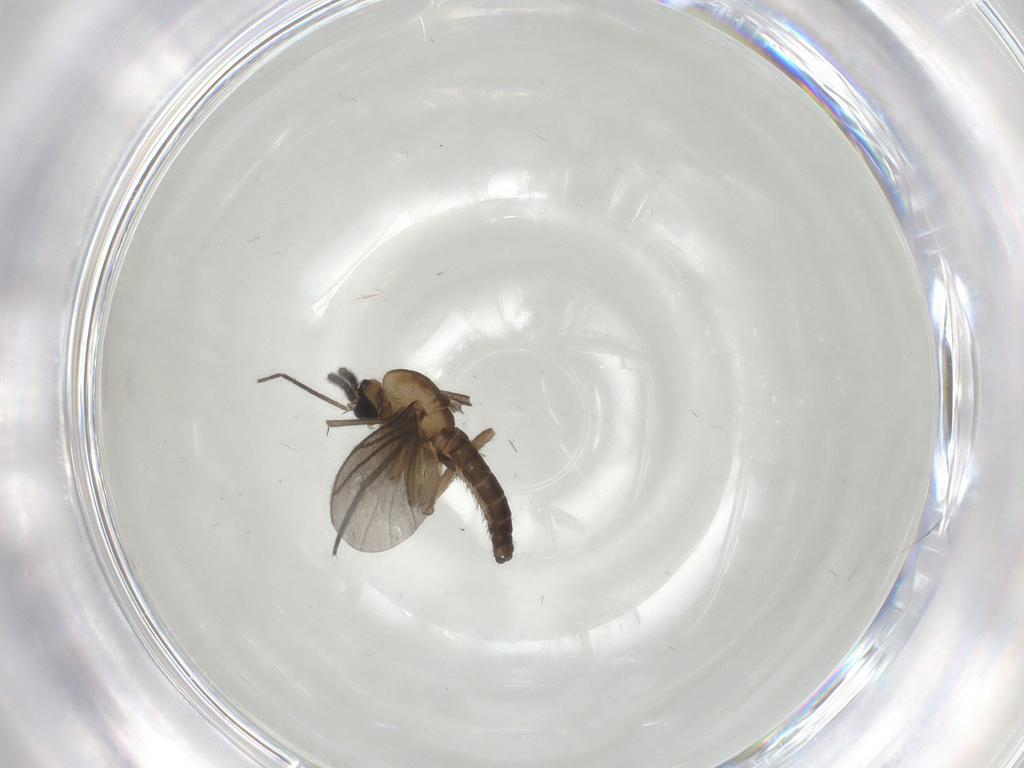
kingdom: Animalia
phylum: Arthropoda
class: Insecta
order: Diptera
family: Sciaridae
